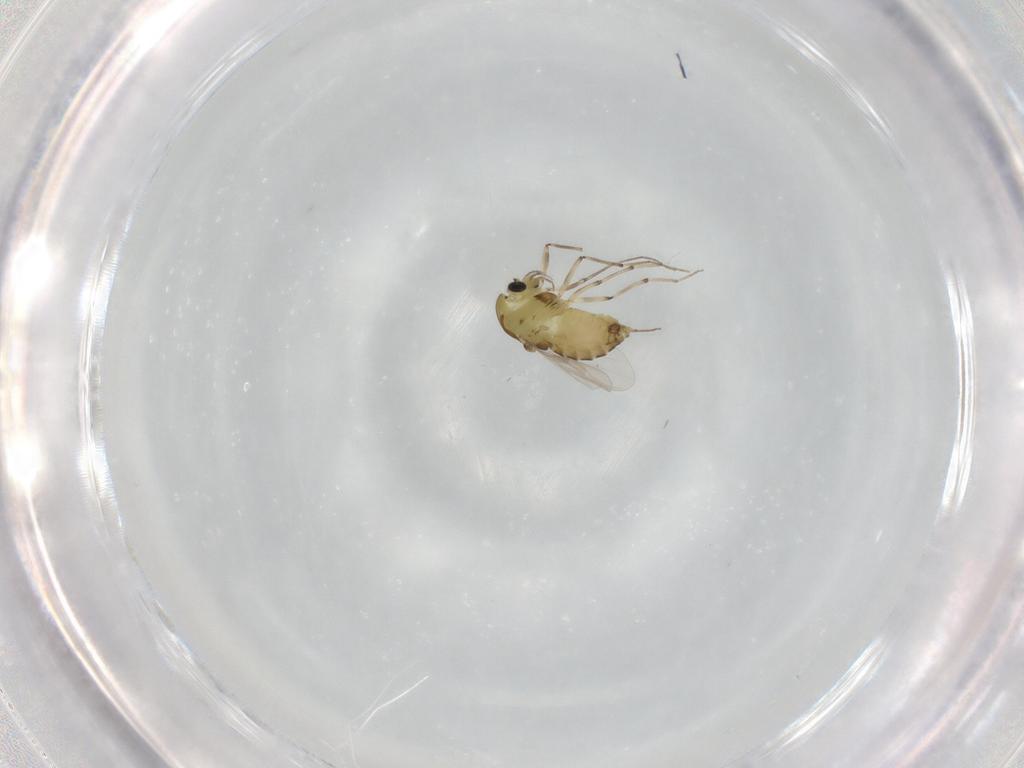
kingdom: Animalia
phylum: Arthropoda
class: Insecta
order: Diptera
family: Chironomidae
